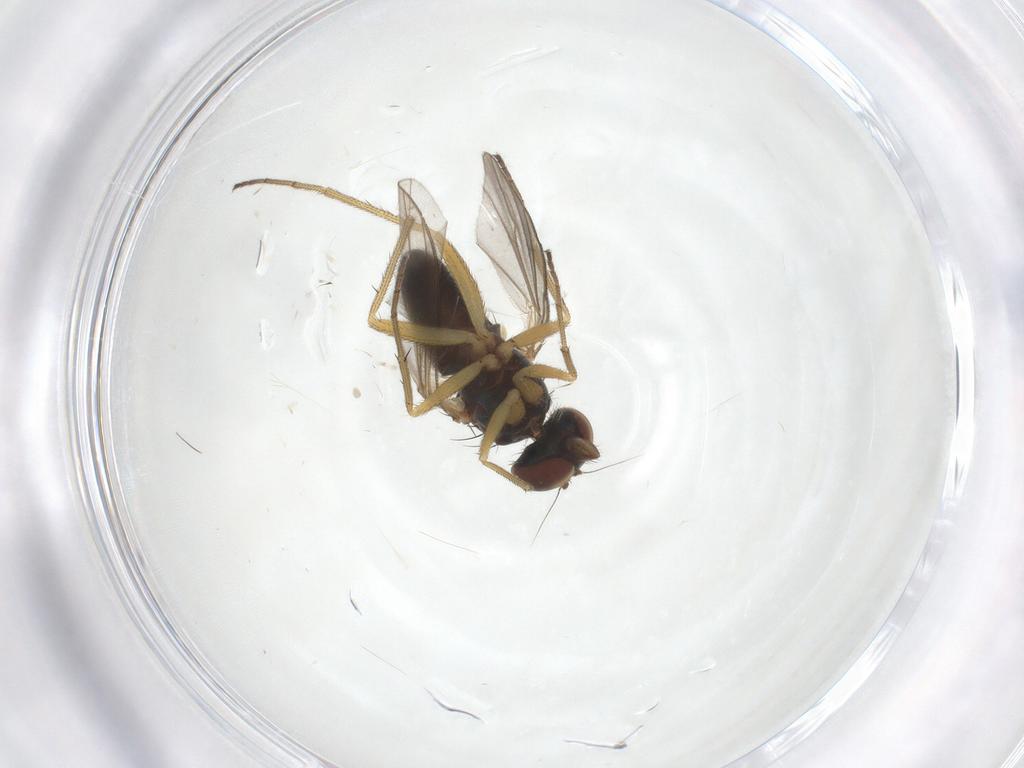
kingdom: Animalia
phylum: Arthropoda
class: Insecta
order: Diptera
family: Dolichopodidae
